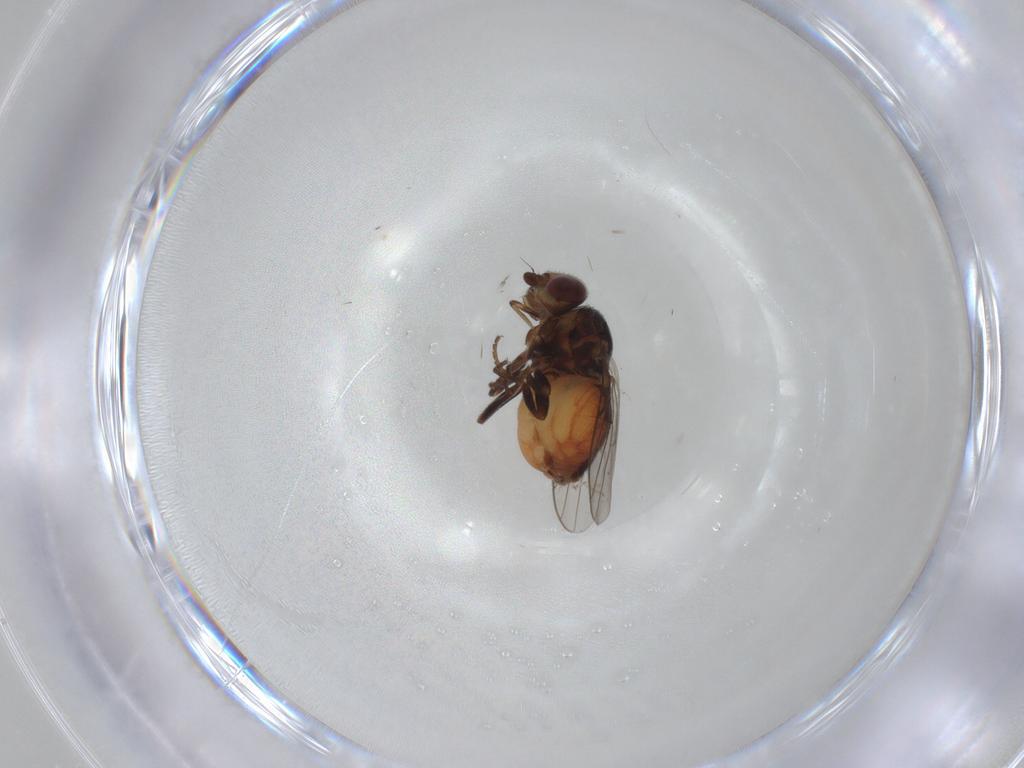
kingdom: Animalia
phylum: Arthropoda
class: Insecta
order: Diptera
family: Chloropidae
